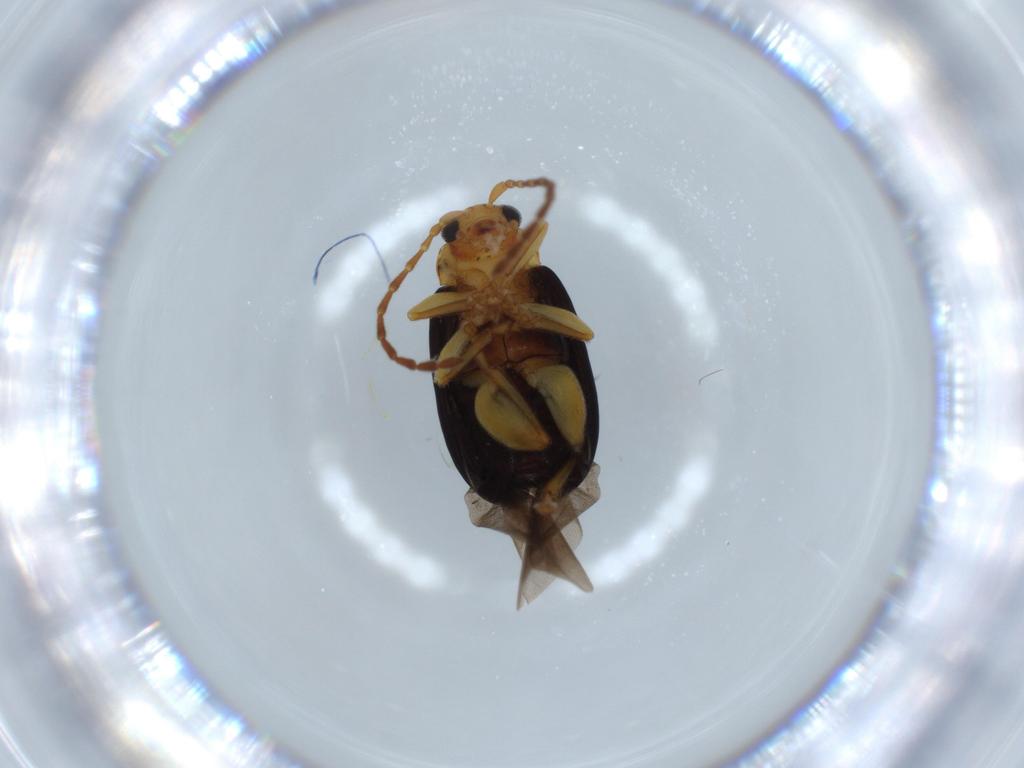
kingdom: Animalia
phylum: Arthropoda
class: Insecta
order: Coleoptera
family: Chrysomelidae
